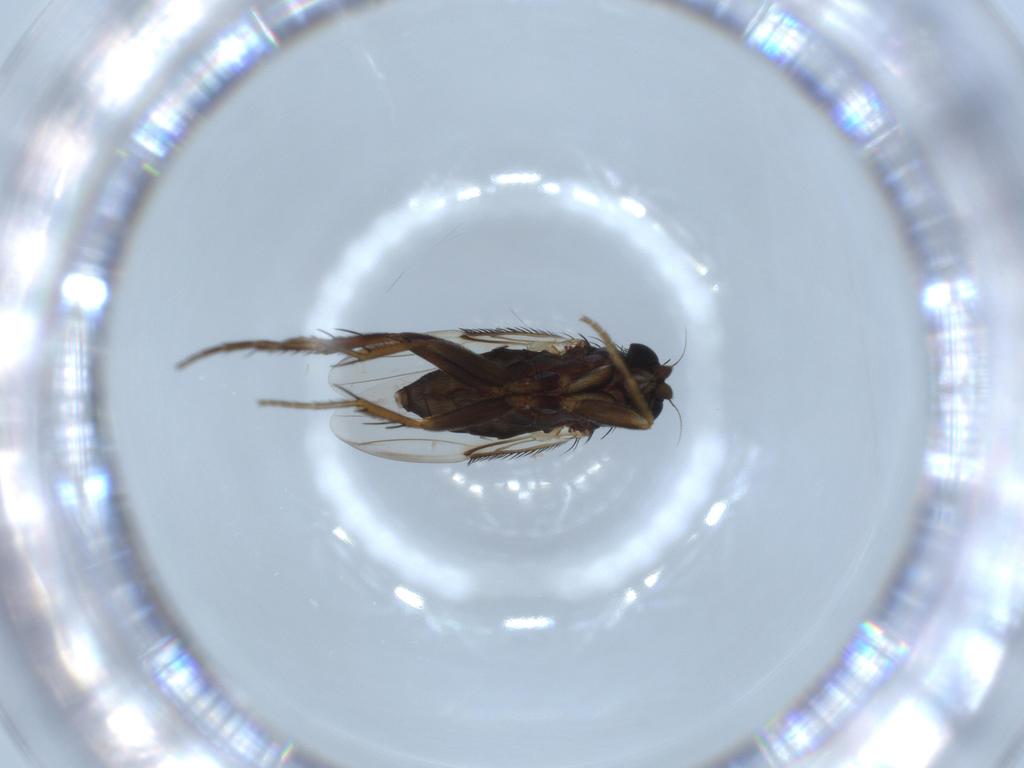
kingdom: Animalia
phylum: Arthropoda
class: Insecta
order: Diptera
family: Phoridae
